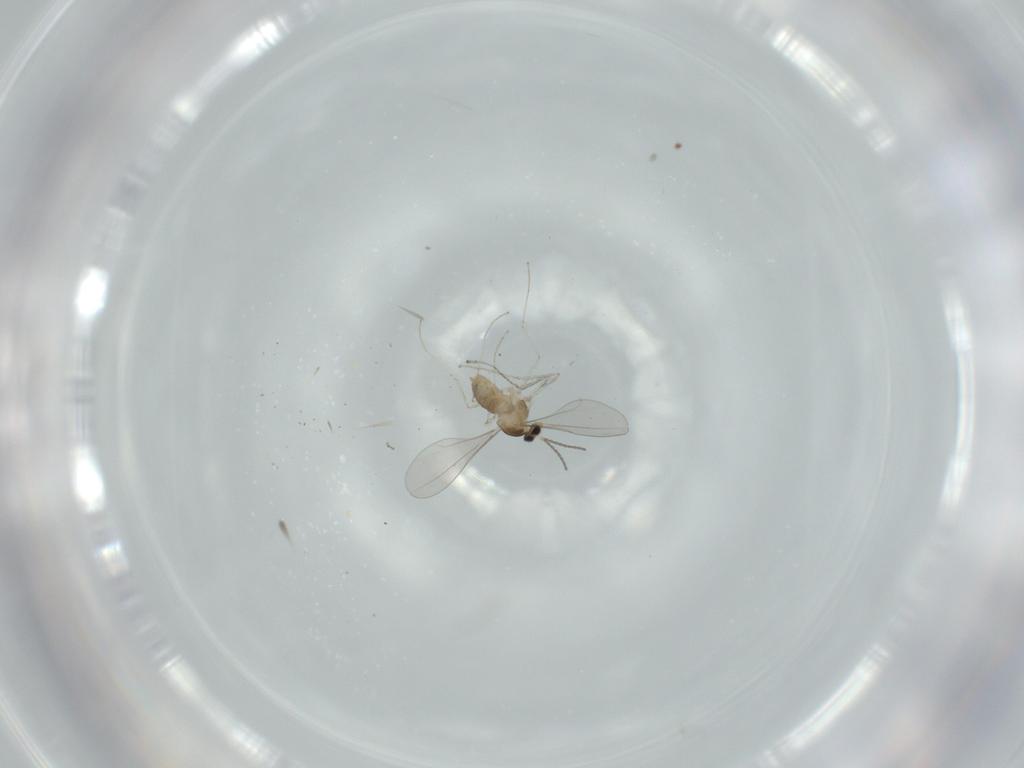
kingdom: Animalia
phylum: Arthropoda
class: Insecta
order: Diptera
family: Cecidomyiidae
